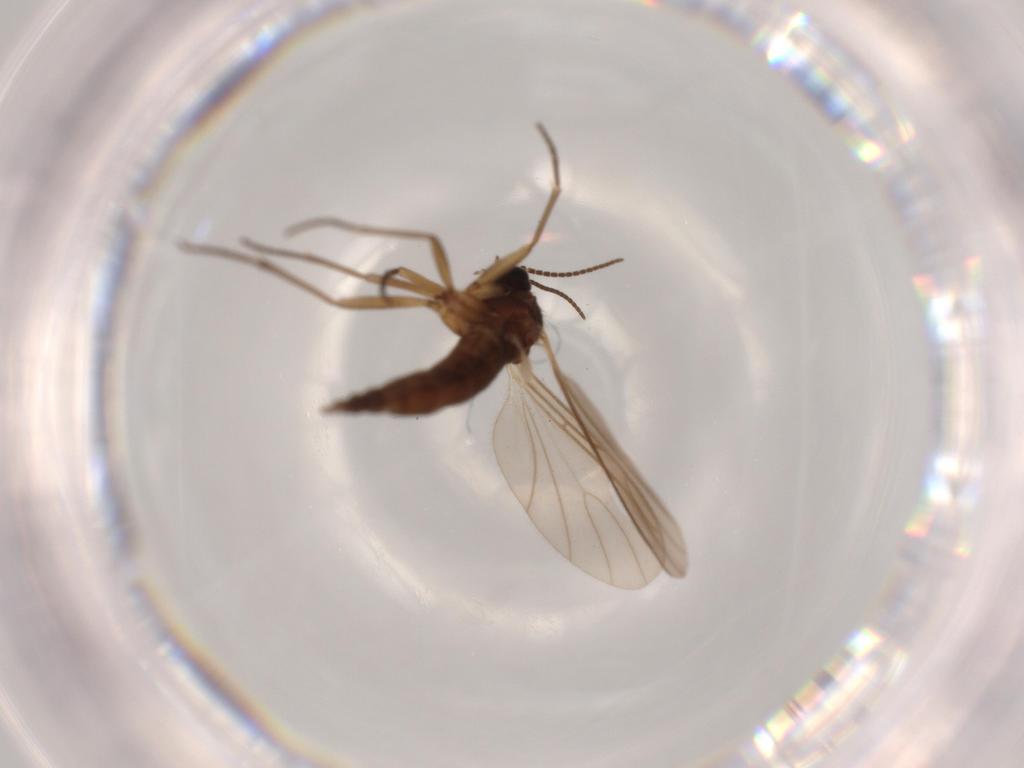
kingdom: Animalia
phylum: Arthropoda
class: Insecta
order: Diptera
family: Sciaridae
